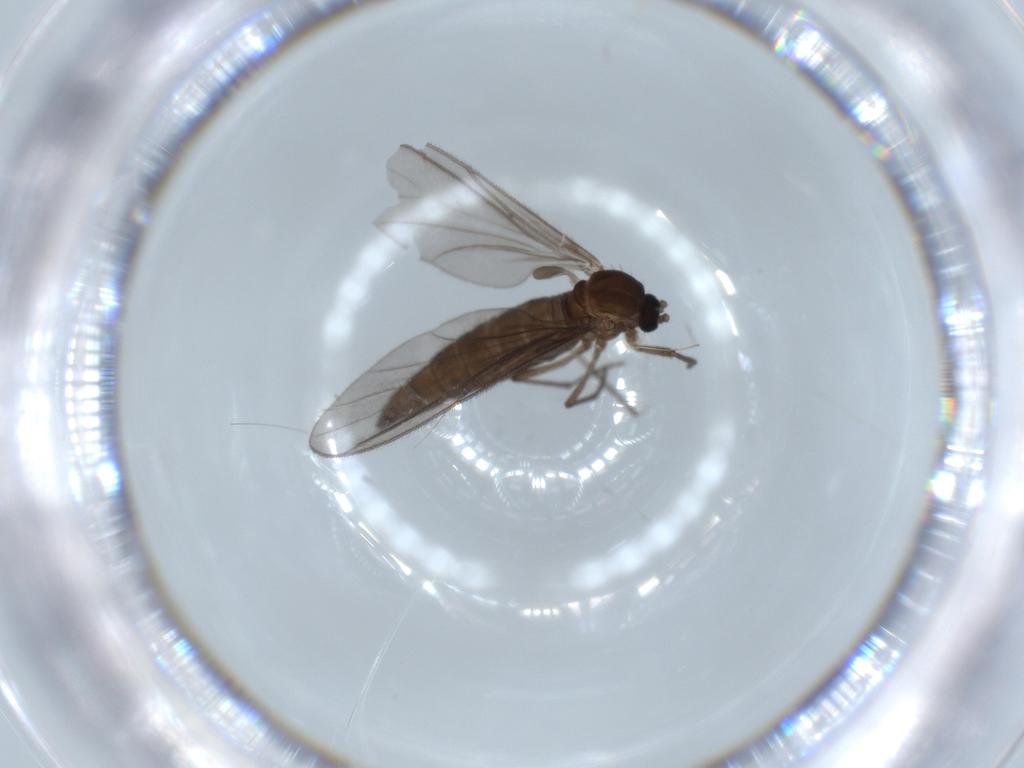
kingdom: Animalia
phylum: Arthropoda
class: Insecta
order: Diptera
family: Sciaridae
